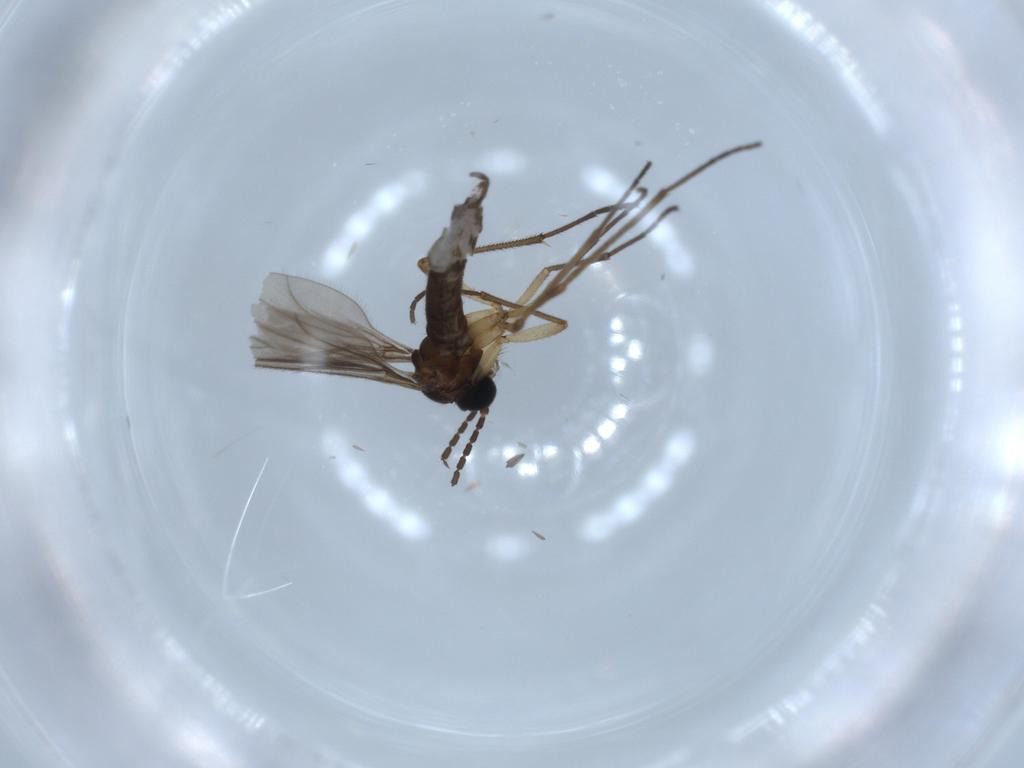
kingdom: Animalia
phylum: Arthropoda
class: Insecta
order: Diptera
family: Sciaridae
